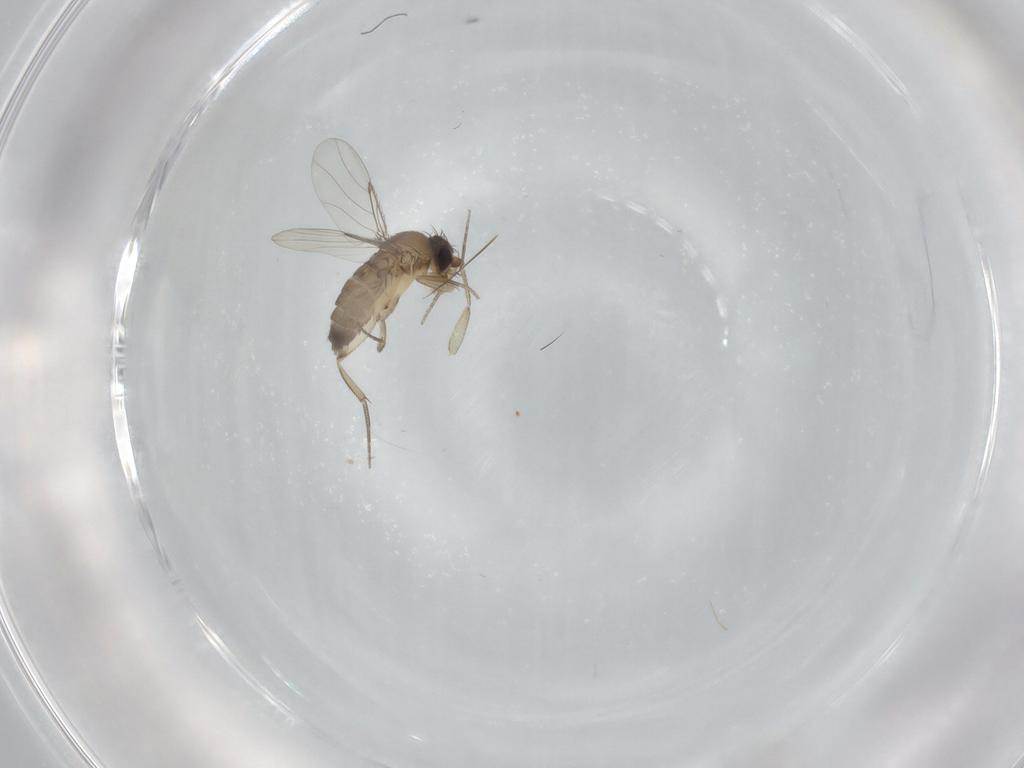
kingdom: Animalia
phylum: Arthropoda
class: Insecta
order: Diptera
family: Phoridae
